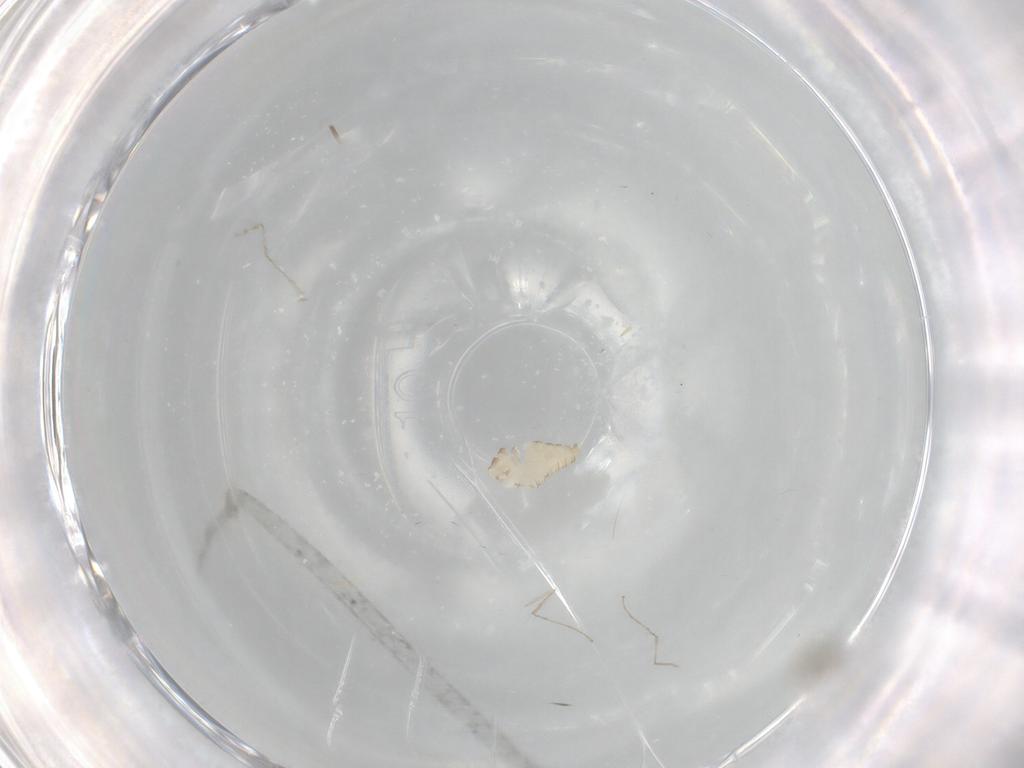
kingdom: Animalia
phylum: Arthropoda
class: Insecta
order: Diptera
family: Cecidomyiidae
